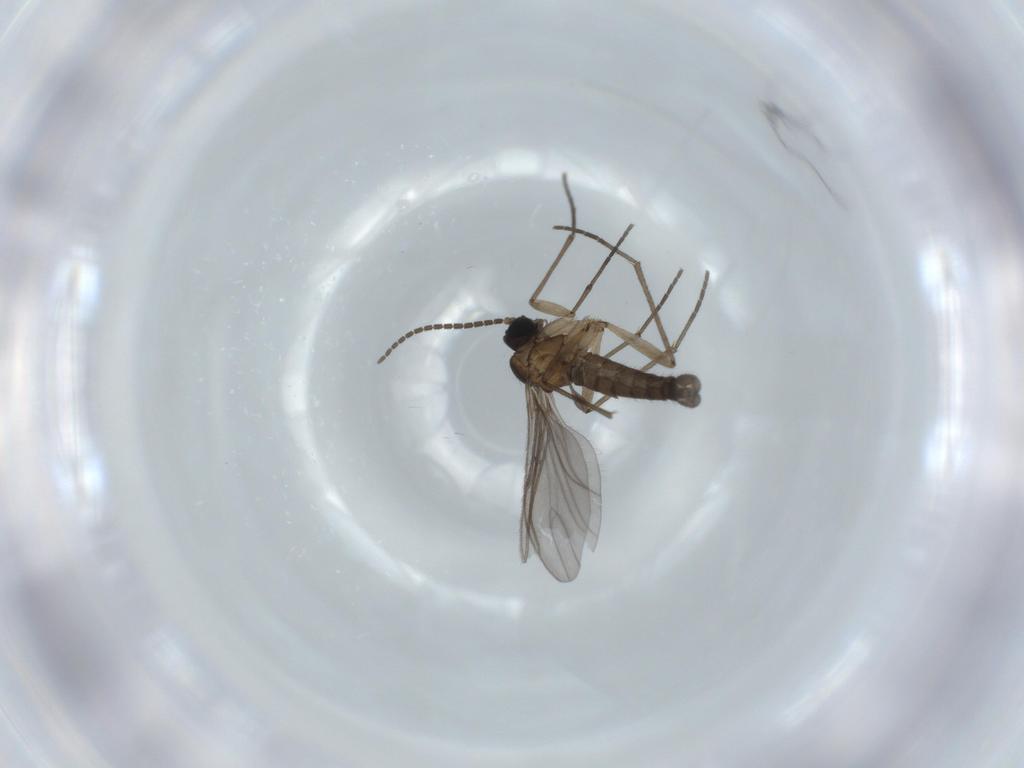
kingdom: Animalia
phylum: Arthropoda
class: Insecta
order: Diptera
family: Sciaridae
